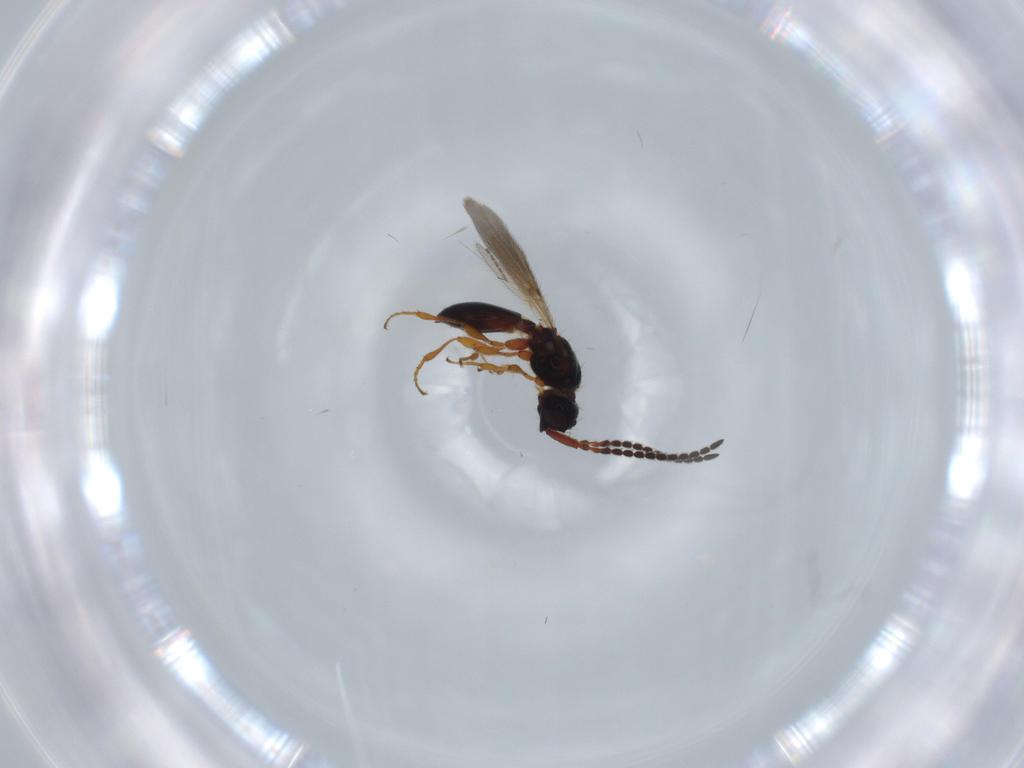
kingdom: Animalia
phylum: Arthropoda
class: Insecta
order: Hymenoptera
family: Diapriidae
